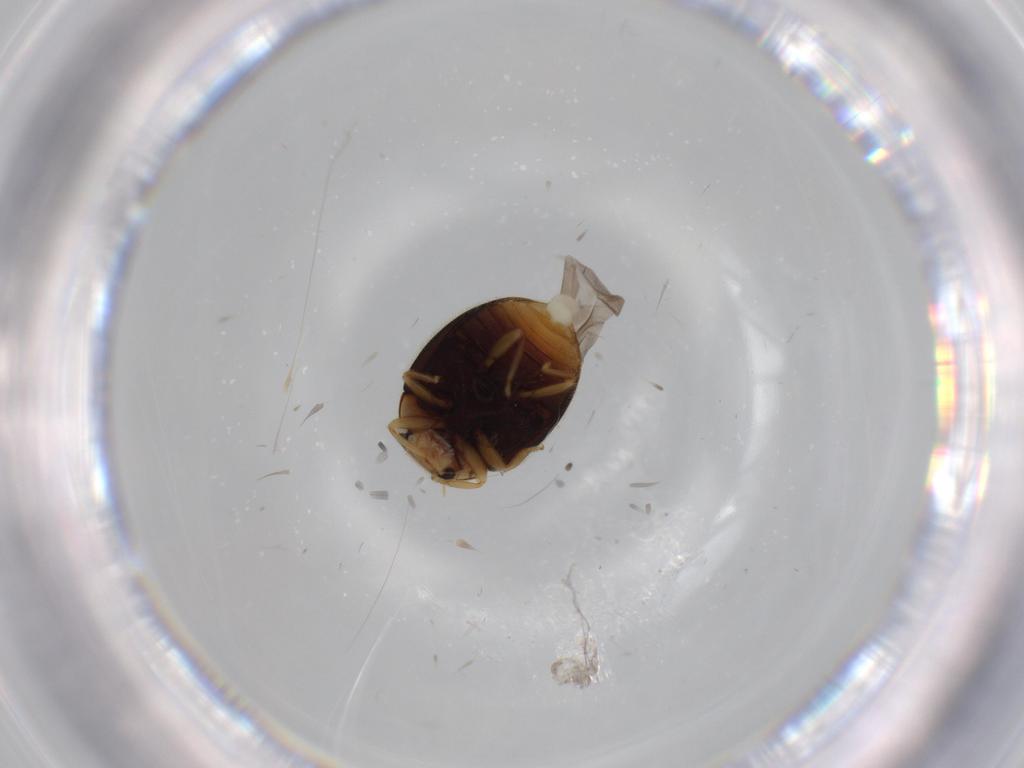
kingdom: Animalia
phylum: Arthropoda
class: Insecta
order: Coleoptera
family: Chrysomelidae
